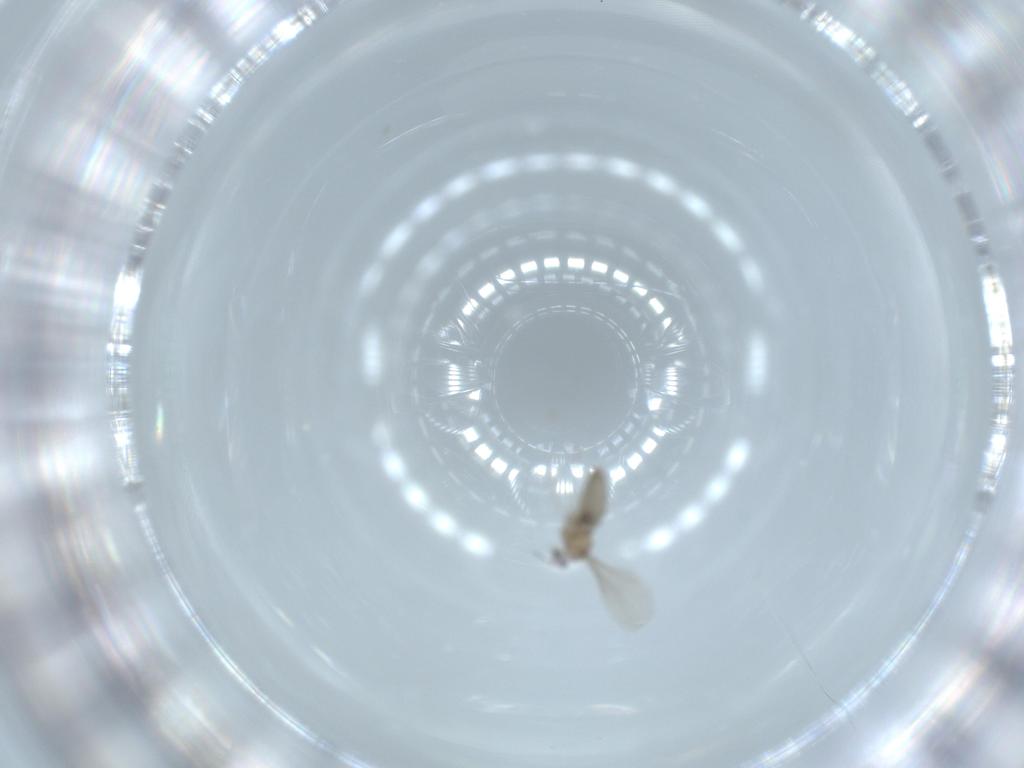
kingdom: Animalia
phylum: Arthropoda
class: Insecta
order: Diptera
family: Cecidomyiidae
